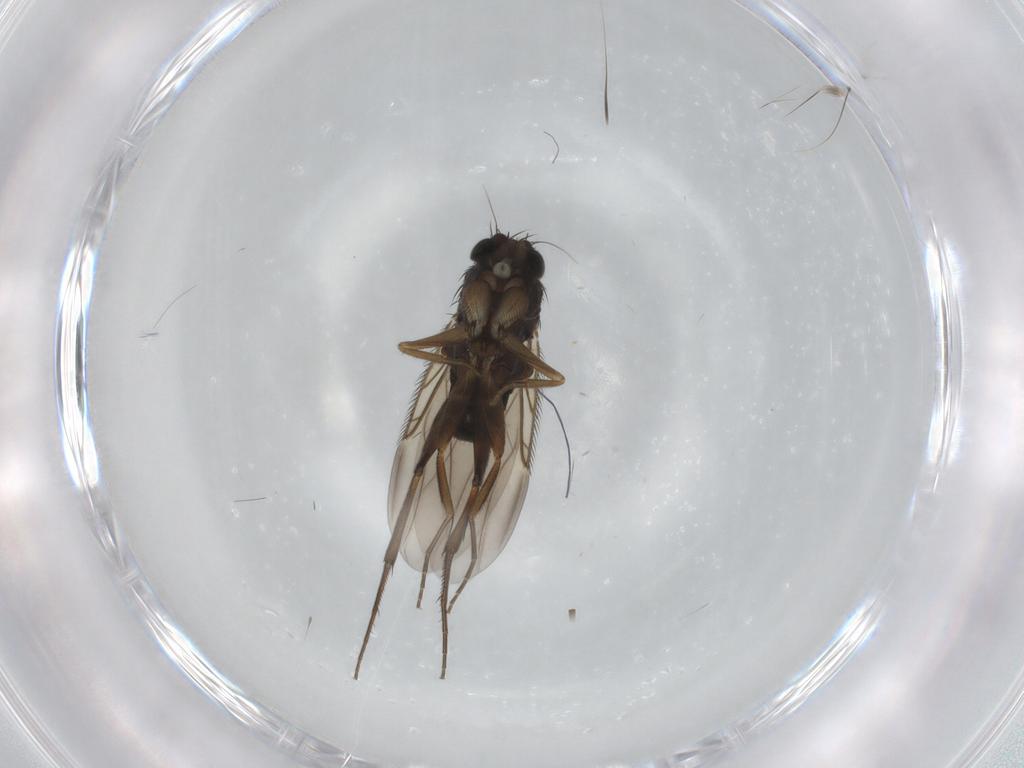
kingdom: Animalia
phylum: Arthropoda
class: Insecta
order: Diptera
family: Phoridae
